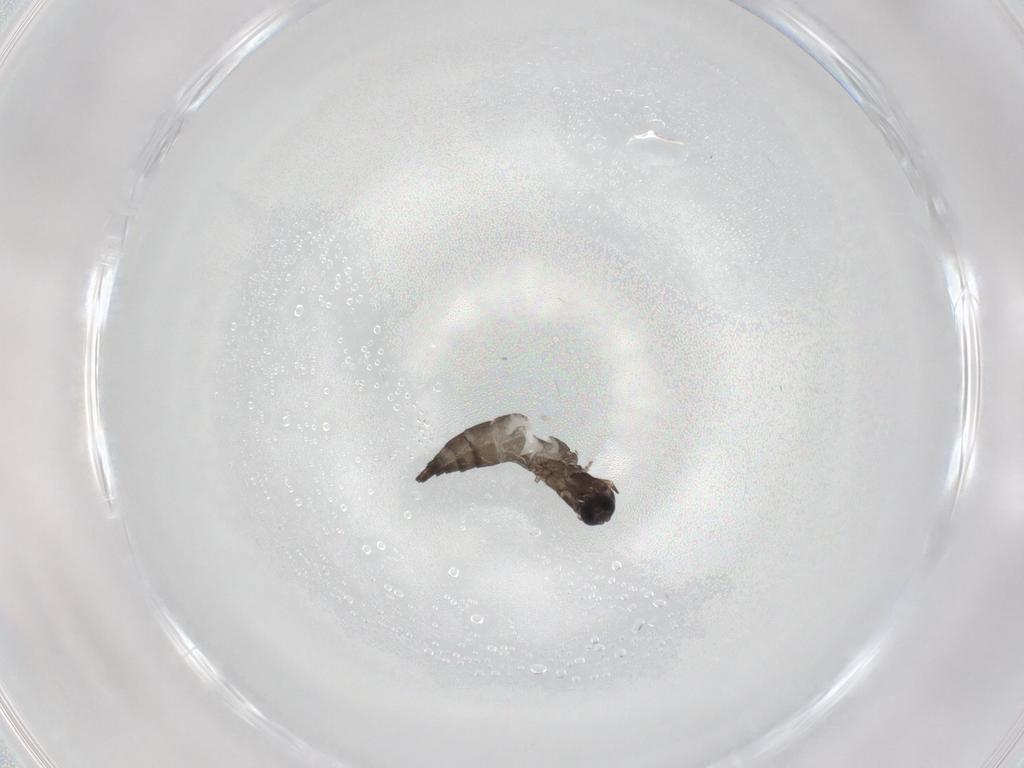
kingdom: Animalia
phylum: Arthropoda
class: Insecta
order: Diptera
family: Sciaridae
